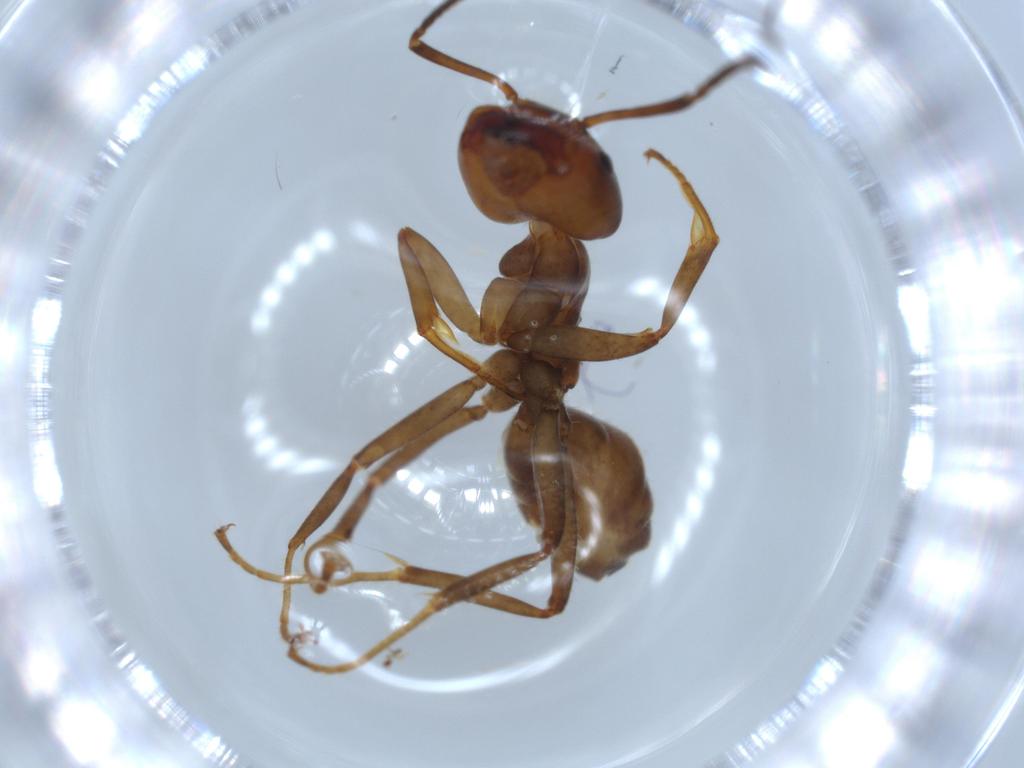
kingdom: Animalia
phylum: Arthropoda
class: Insecta
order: Hymenoptera
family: Formicidae
